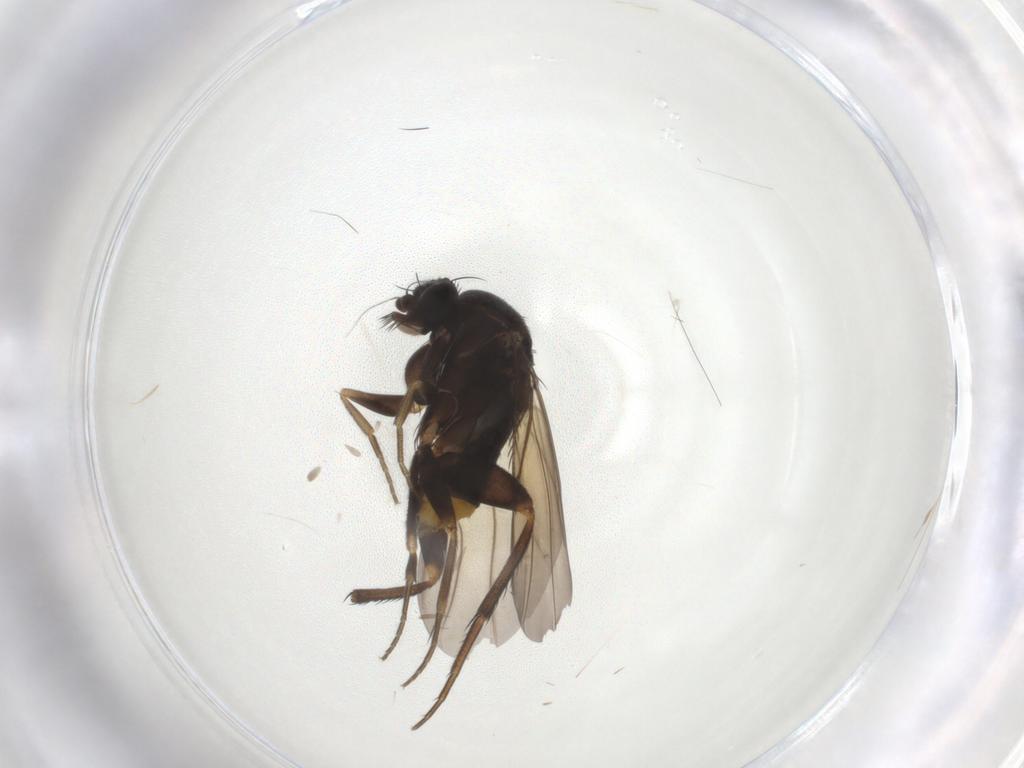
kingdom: Animalia
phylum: Arthropoda
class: Insecta
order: Diptera
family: Phoridae
